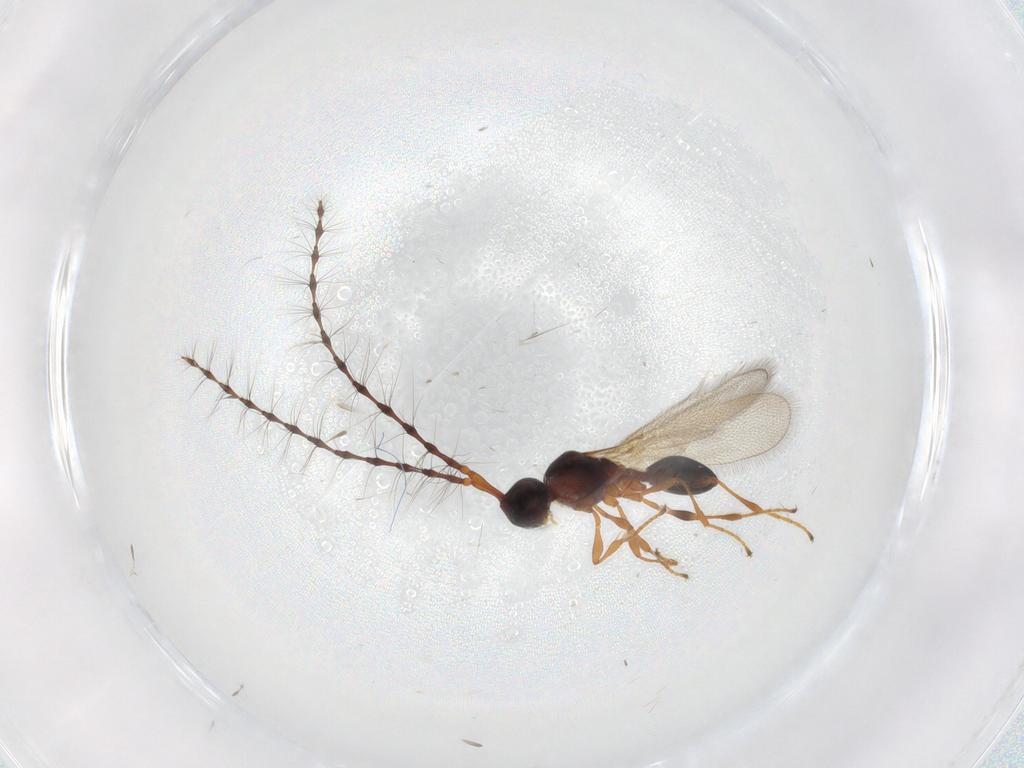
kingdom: Animalia
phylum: Arthropoda
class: Insecta
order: Hymenoptera
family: Diapriidae
